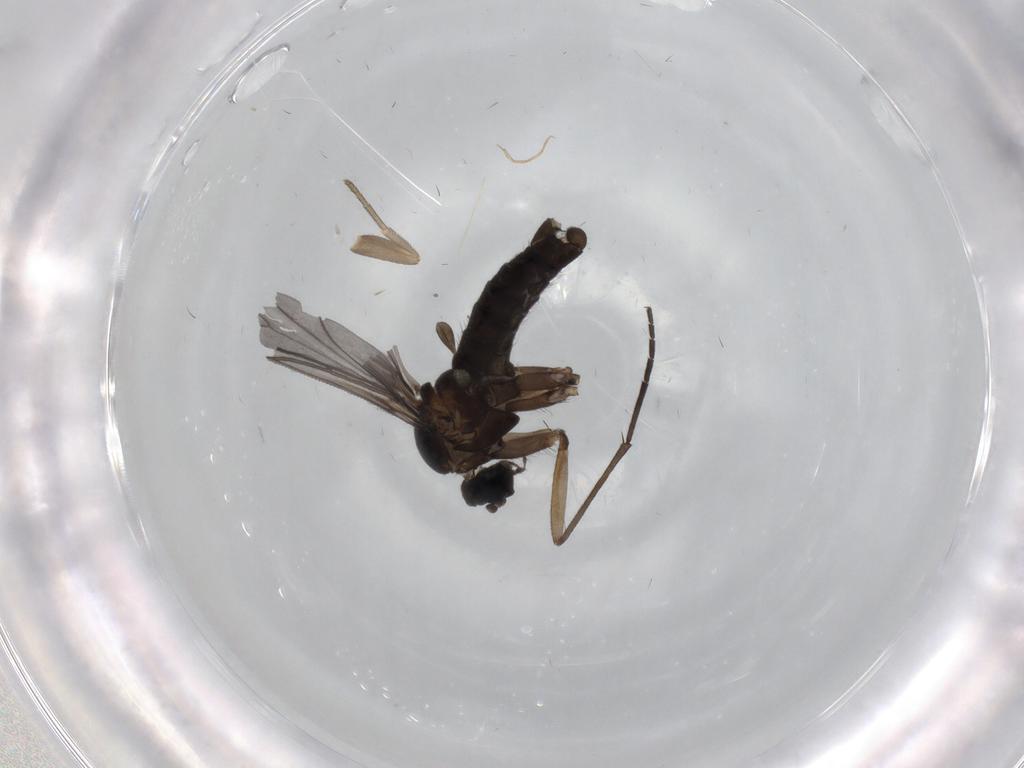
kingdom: Animalia
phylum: Arthropoda
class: Insecta
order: Diptera
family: Sciaridae
